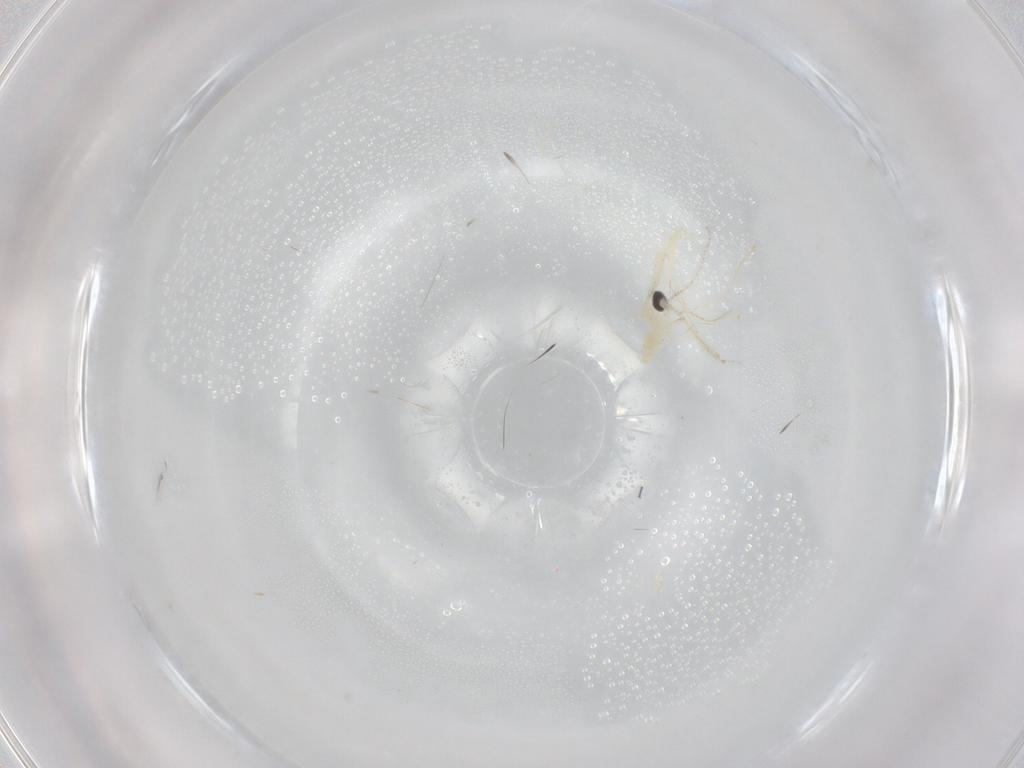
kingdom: Animalia
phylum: Arthropoda
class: Insecta
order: Diptera
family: Cecidomyiidae
